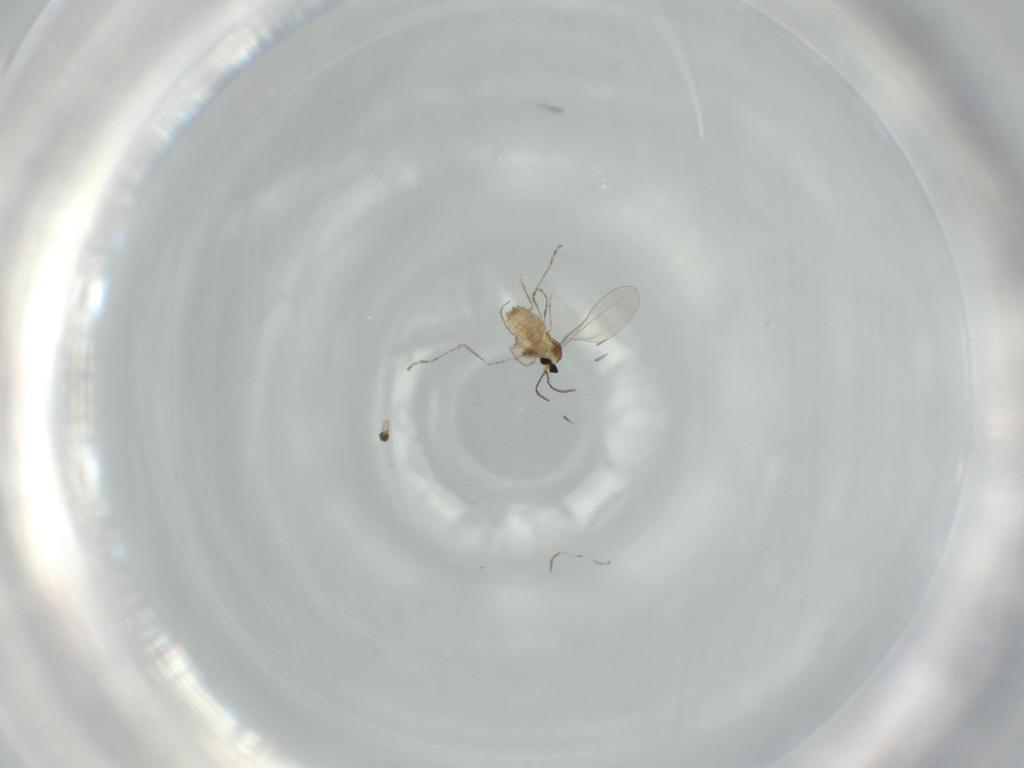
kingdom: Animalia
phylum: Arthropoda
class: Insecta
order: Diptera
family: Cecidomyiidae
